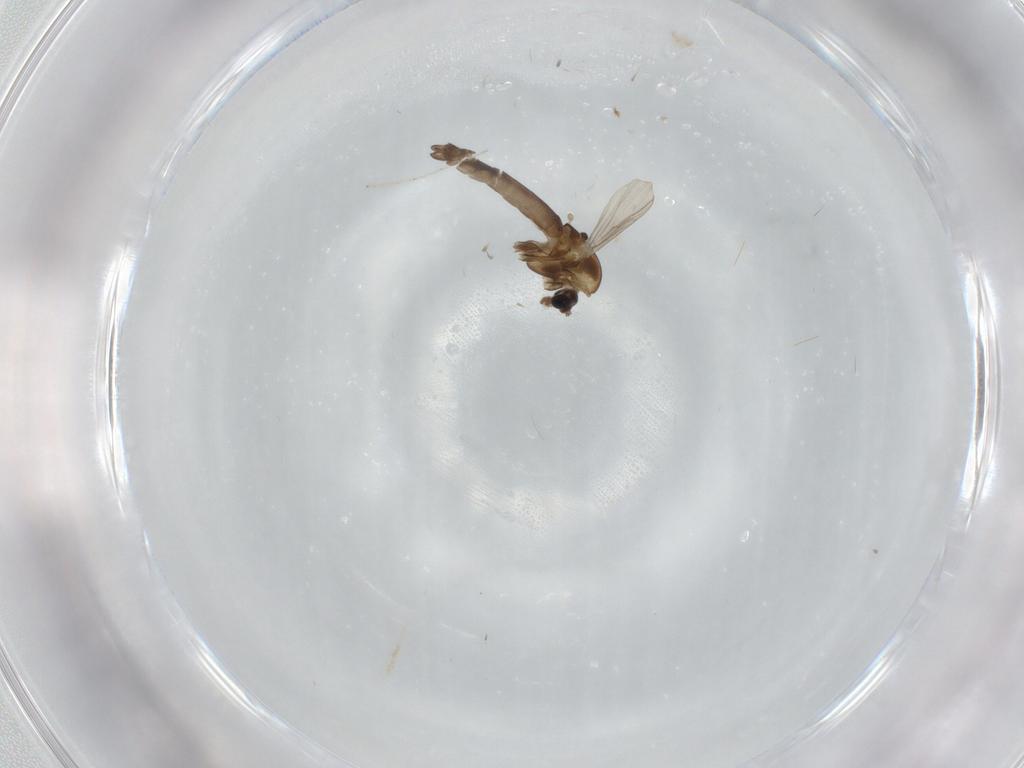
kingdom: Animalia
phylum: Arthropoda
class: Insecta
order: Diptera
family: Chironomidae
